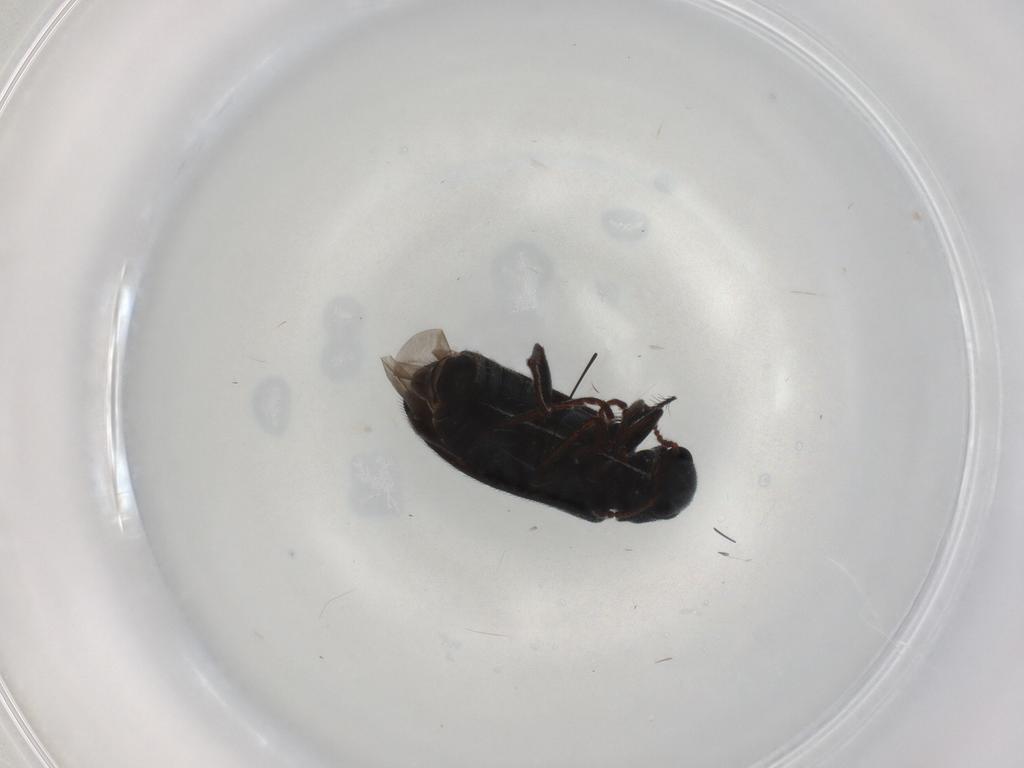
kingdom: Animalia
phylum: Arthropoda
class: Insecta
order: Coleoptera
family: Melyridae
